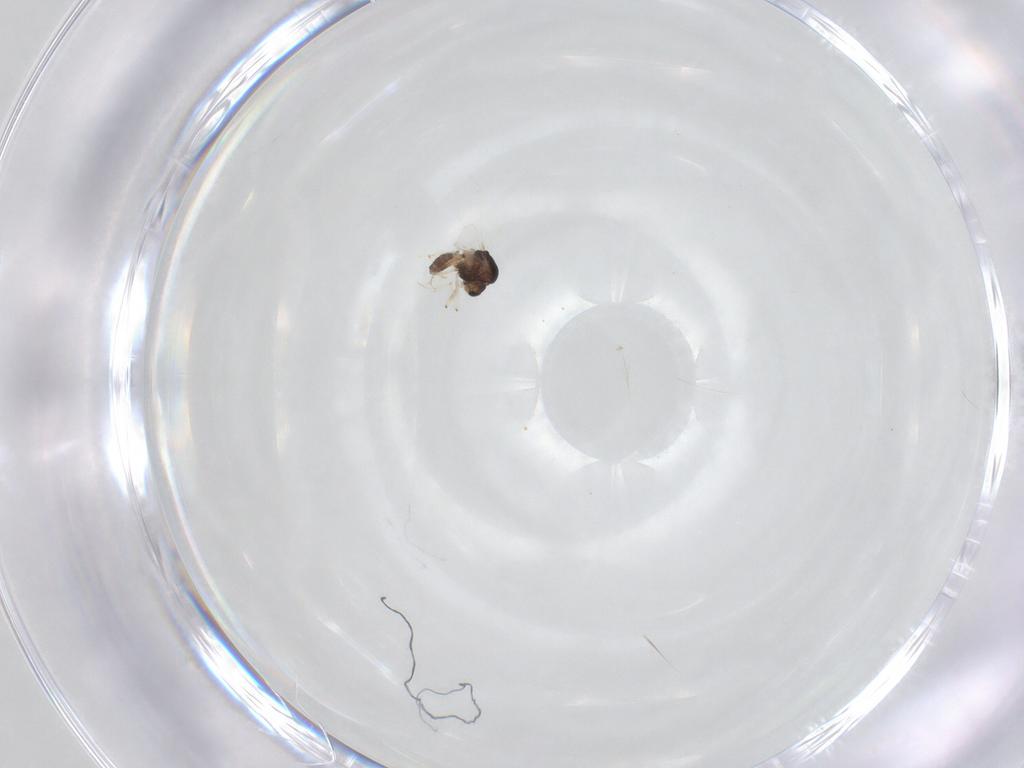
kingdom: Animalia
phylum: Arthropoda
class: Insecta
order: Diptera
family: Chironomidae
